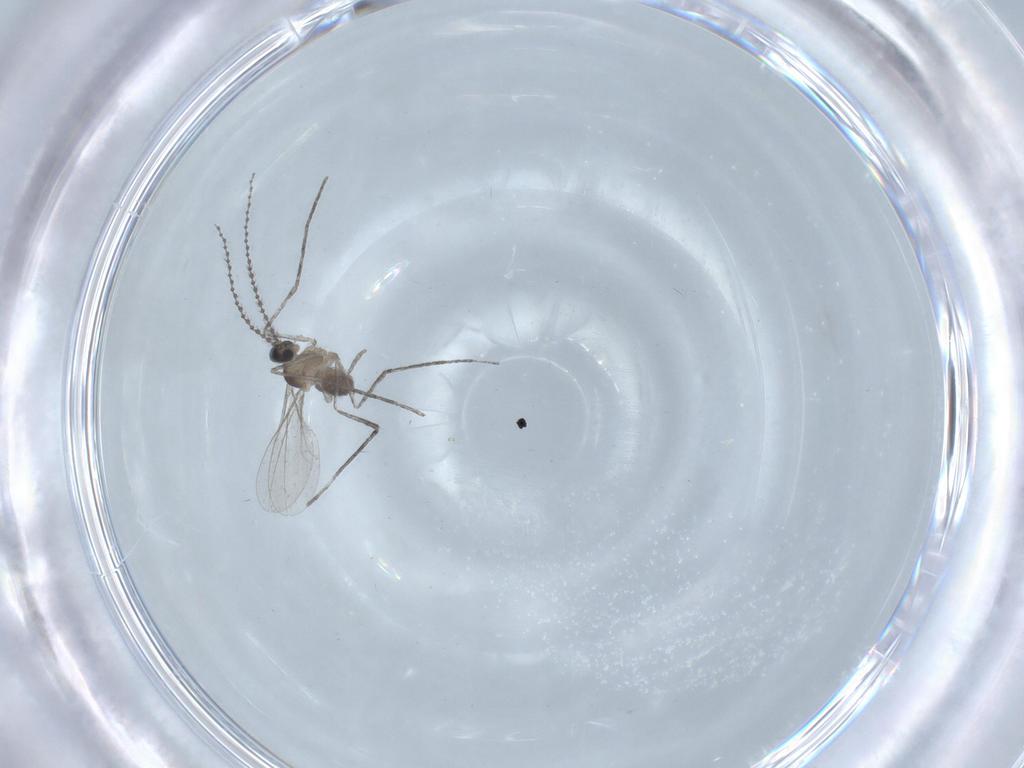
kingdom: Animalia
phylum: Arthropoda
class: Insecta
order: Diptera
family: Cecidomyiidae
